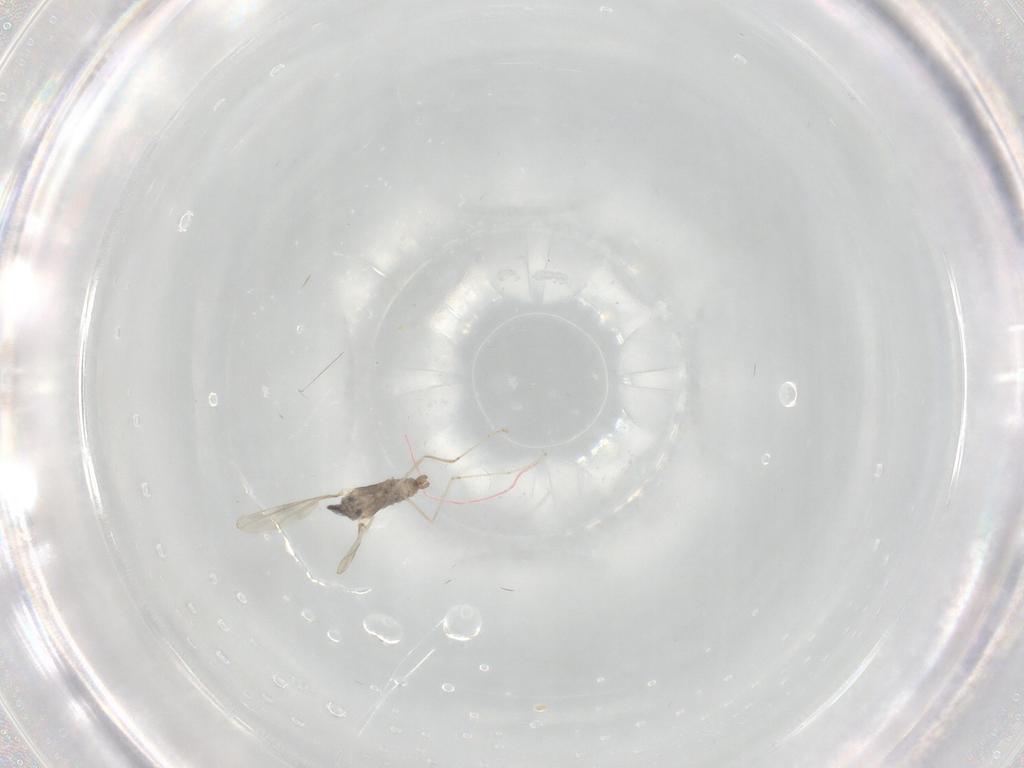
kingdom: Animalia
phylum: Arthropoda
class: Insecta
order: Diptera
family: Cecidomyiidae
